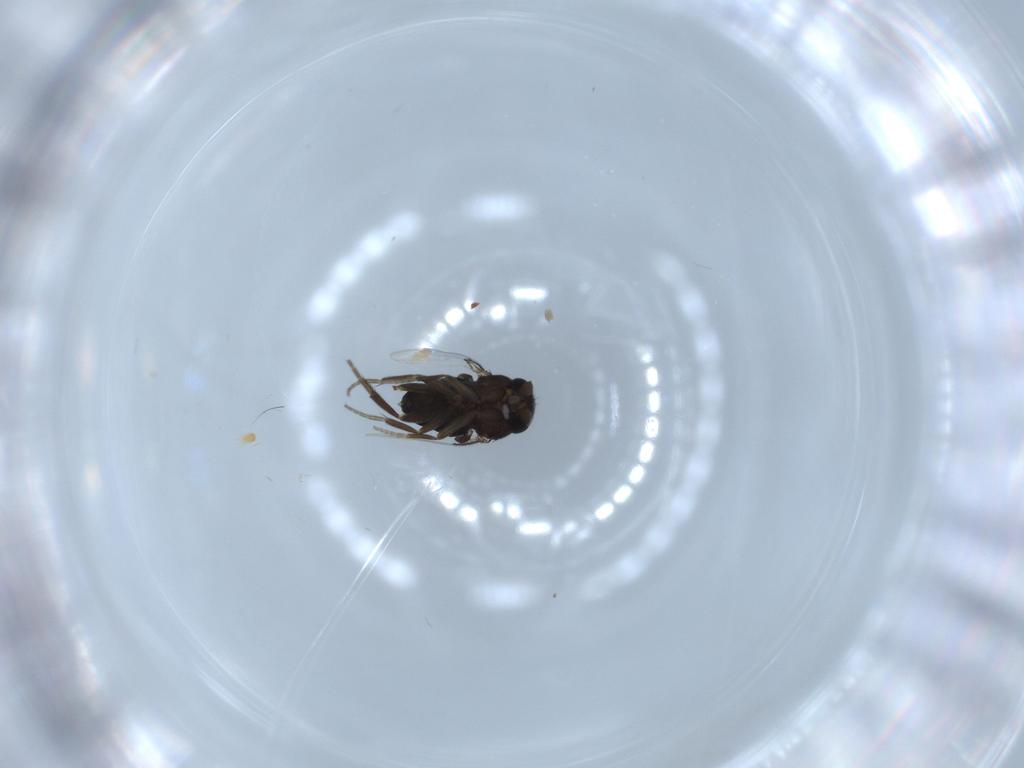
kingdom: Animalia
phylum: Arthropoda
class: Insecta
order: Diptera
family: Phoridae
